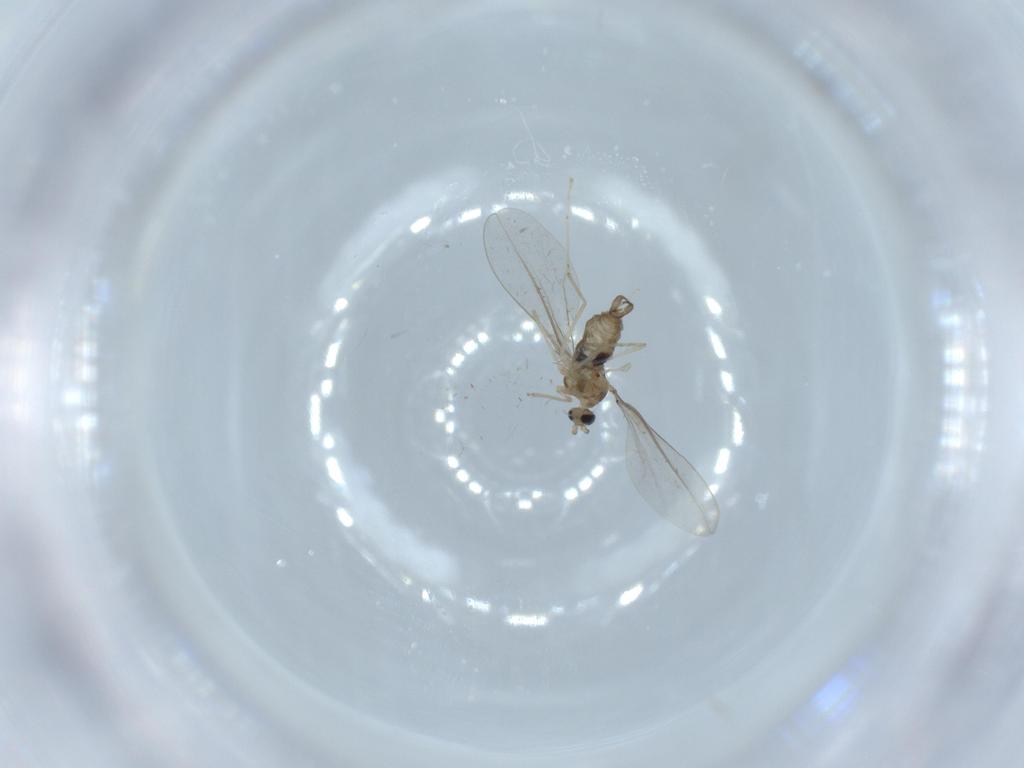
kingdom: Animalia
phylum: Arthropoda
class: Insecta
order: Diptera
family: Cecidomyiidae
